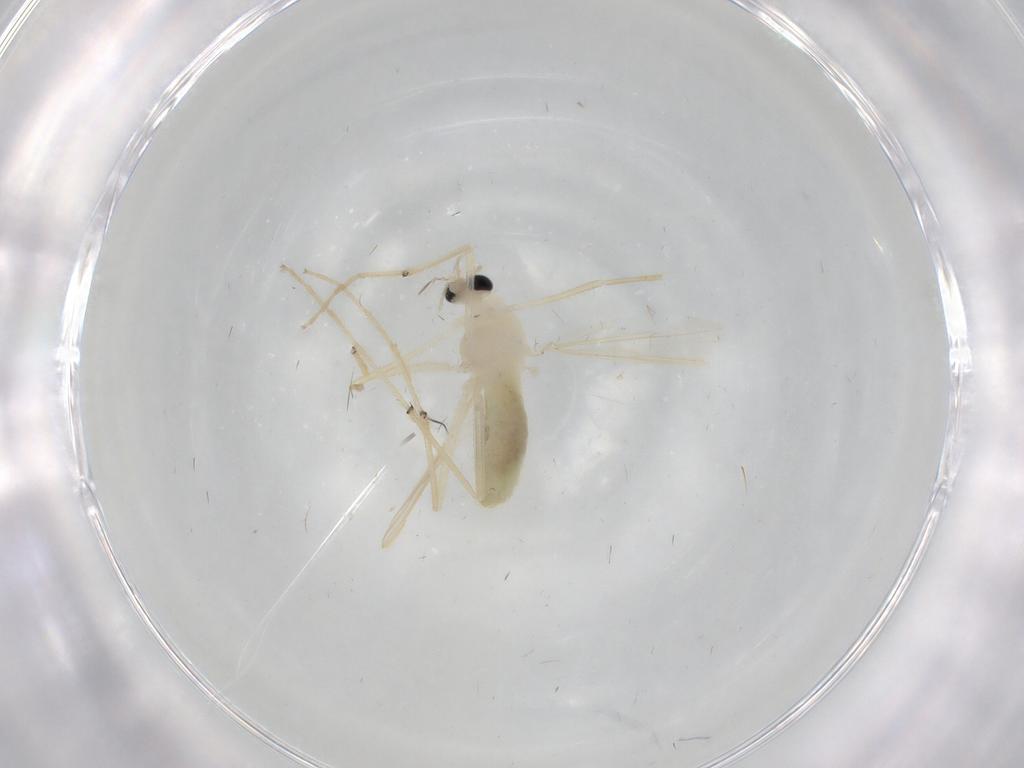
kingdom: Animalia
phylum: Arthropoda
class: Insecta
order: Diptera
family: Chironomidae
